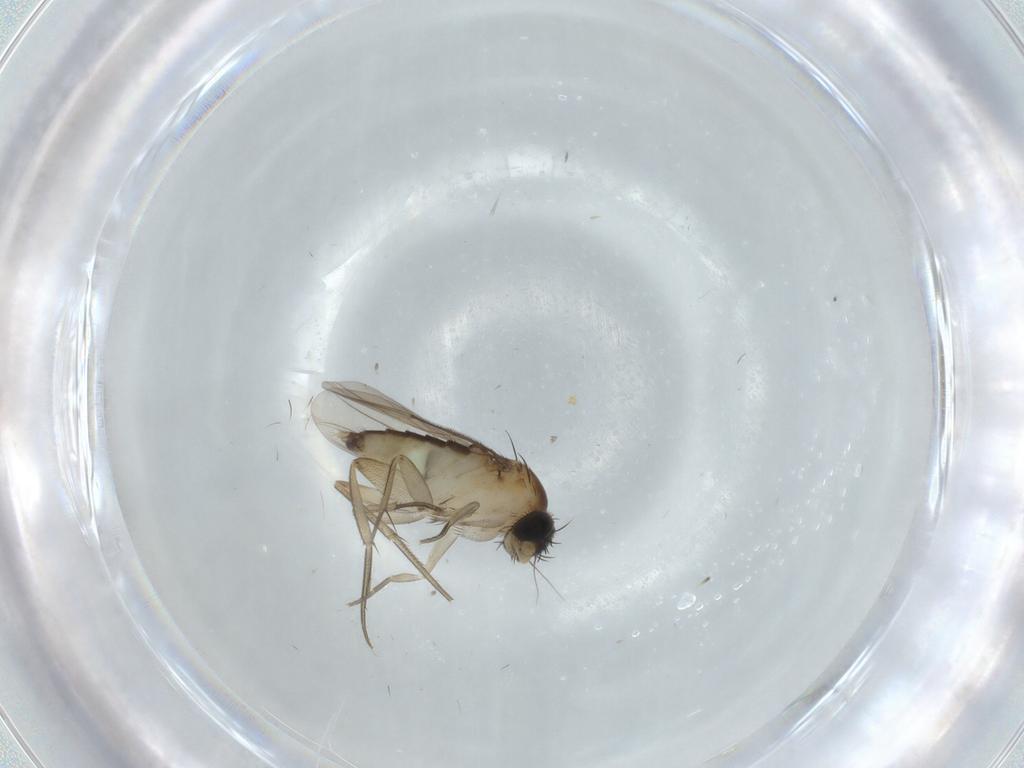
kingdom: Animalia
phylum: Arthropoda
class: Insecta
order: Diptera
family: Phoridae
